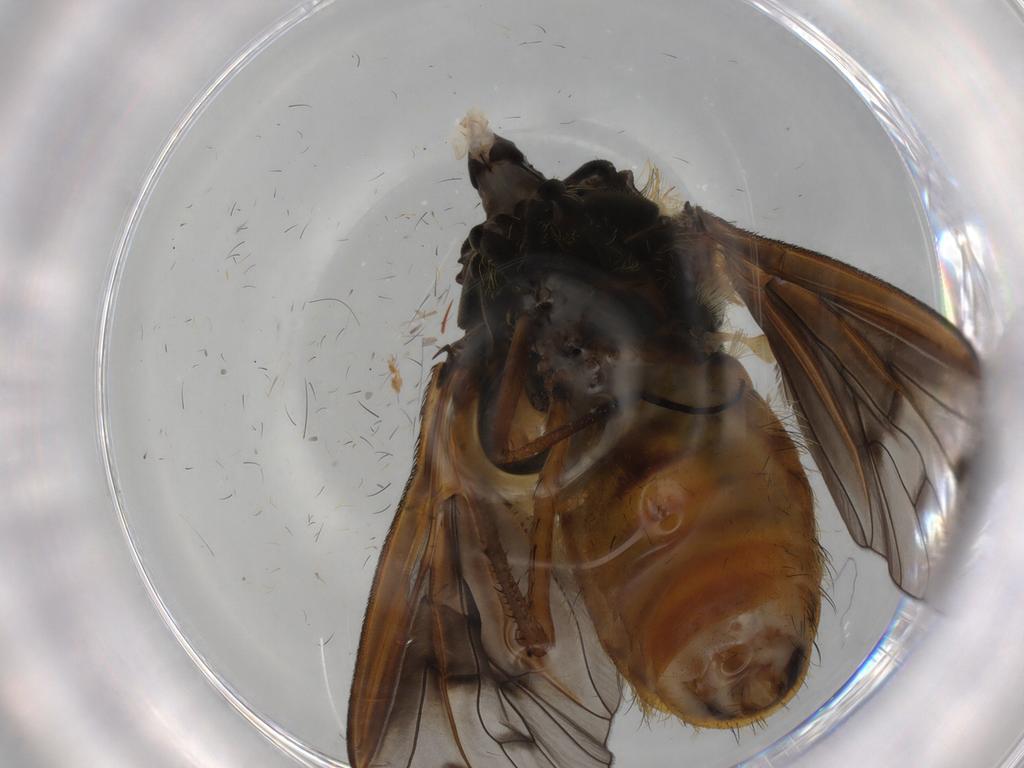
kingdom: Animalia
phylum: Arthropoda
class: Insecta
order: Diptera
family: Bombyliidae
